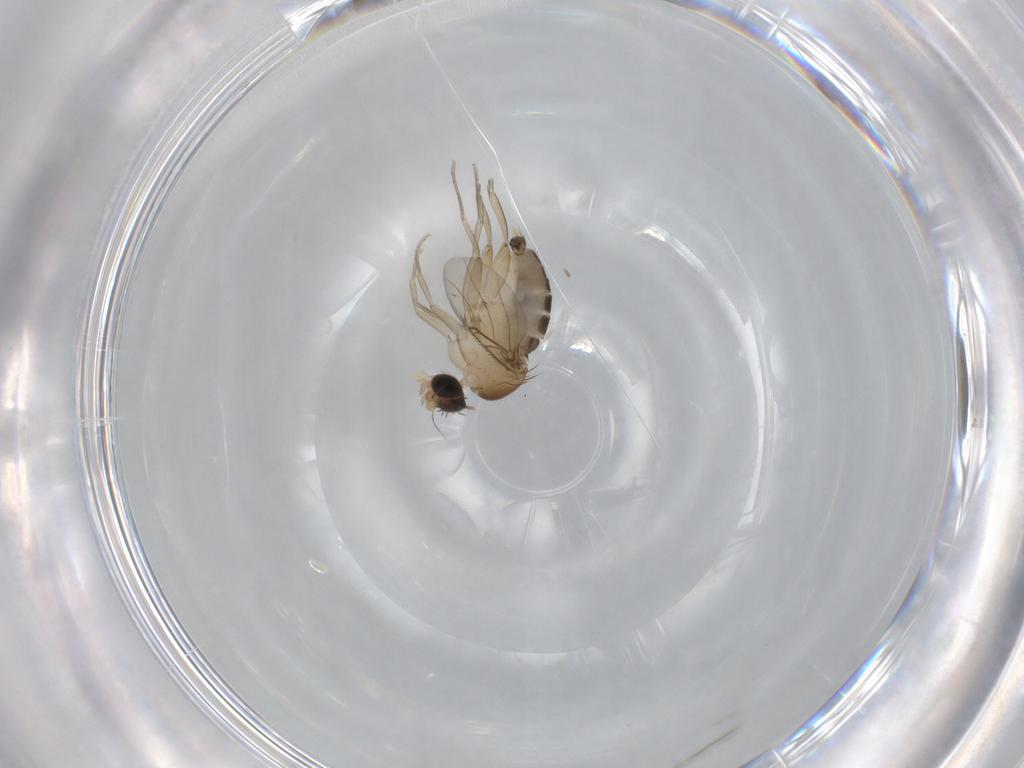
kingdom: Animalia
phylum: Arthropoda
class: Insecta
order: Diptera
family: Phoridae
